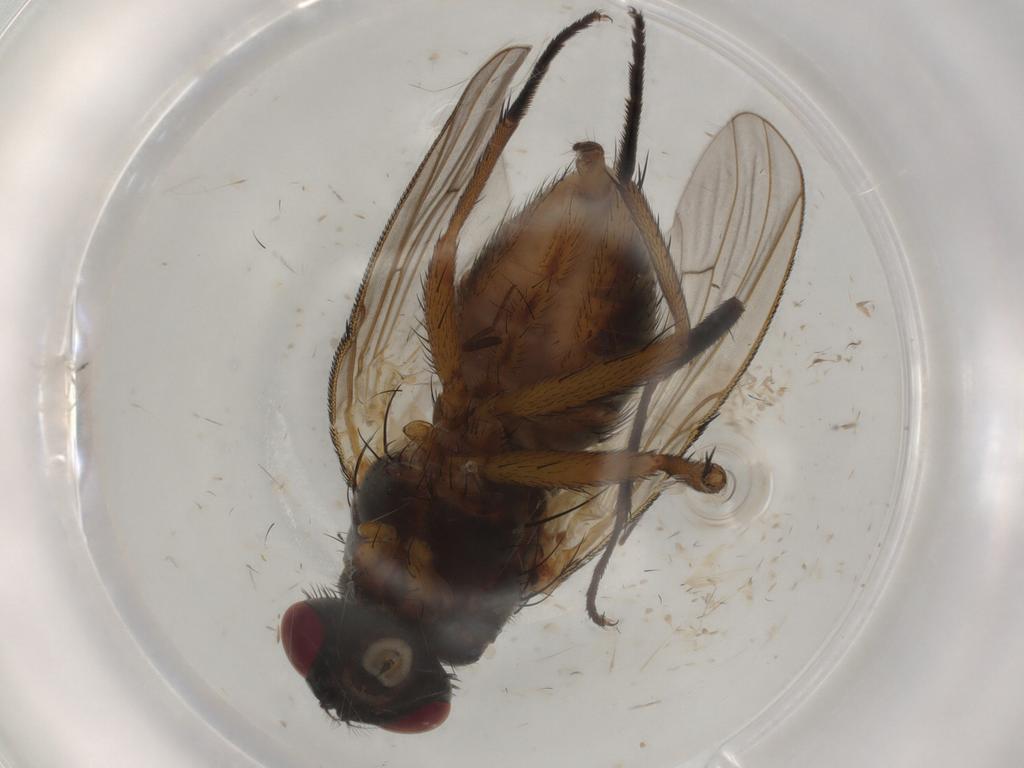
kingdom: Animalia
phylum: Arthropoda
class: Insecta
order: Diptera
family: Muscidae
